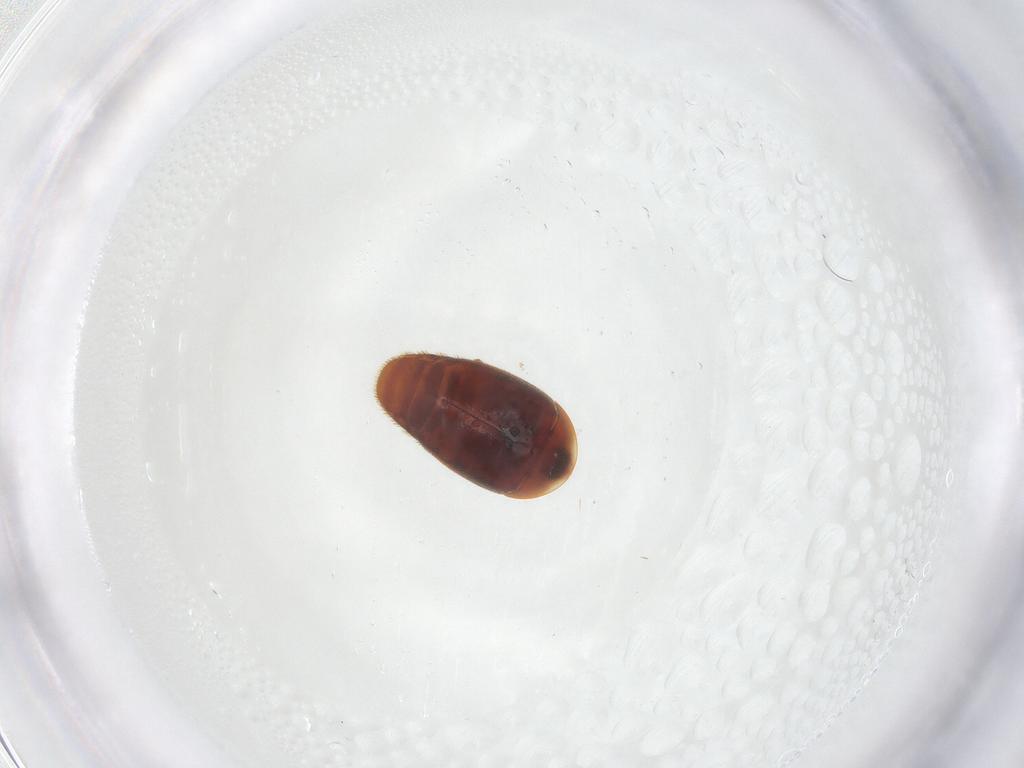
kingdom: Animalia
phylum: Arthropoda
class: Insecta
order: Coleoptera
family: Corylophidae
